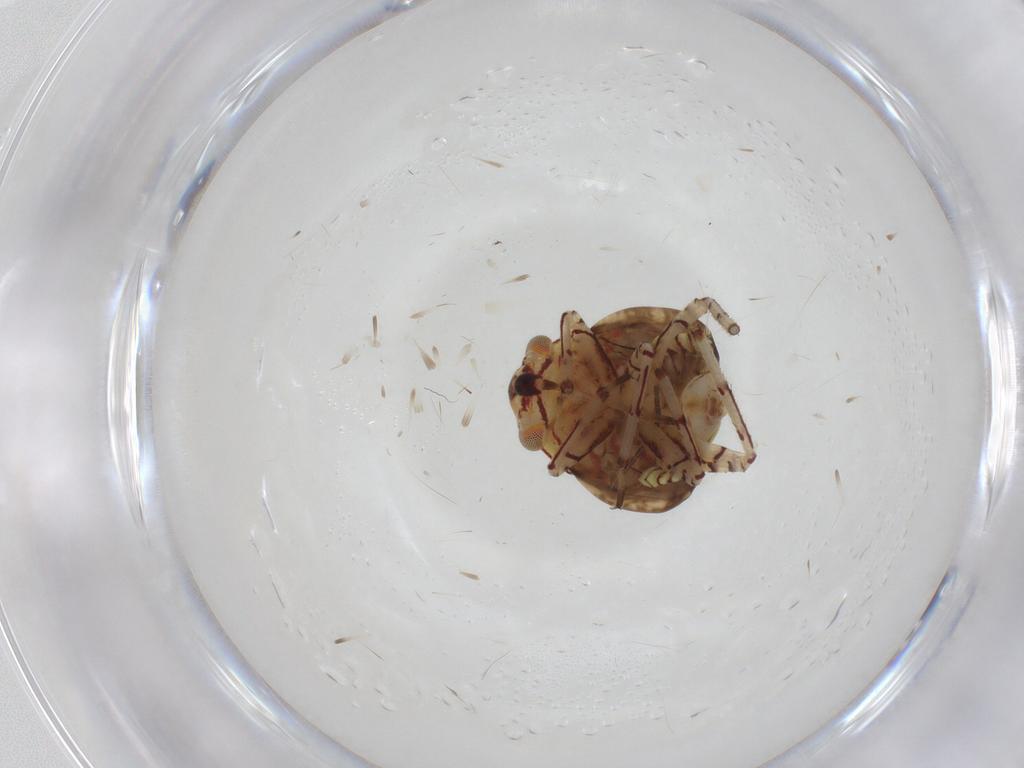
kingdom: Animalia
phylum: Arthropoda
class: Insecta
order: Hemiptera
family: Miridae
